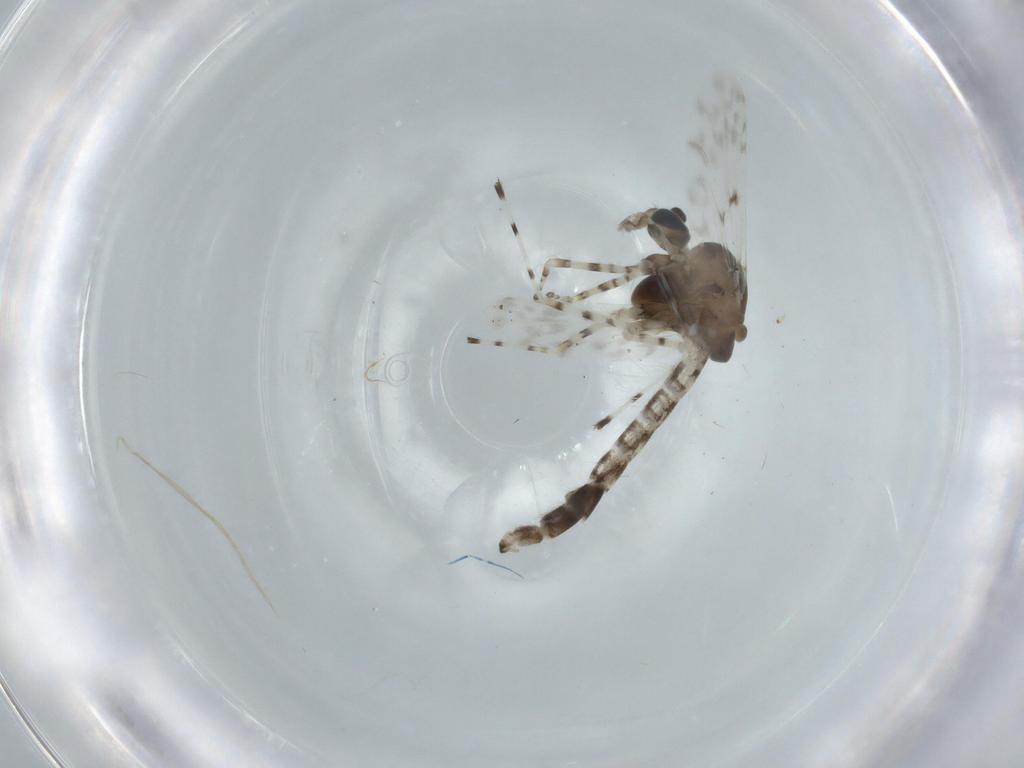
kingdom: Animalia
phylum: Arthropoda
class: Insecta
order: Diptera
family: Chironomidae
